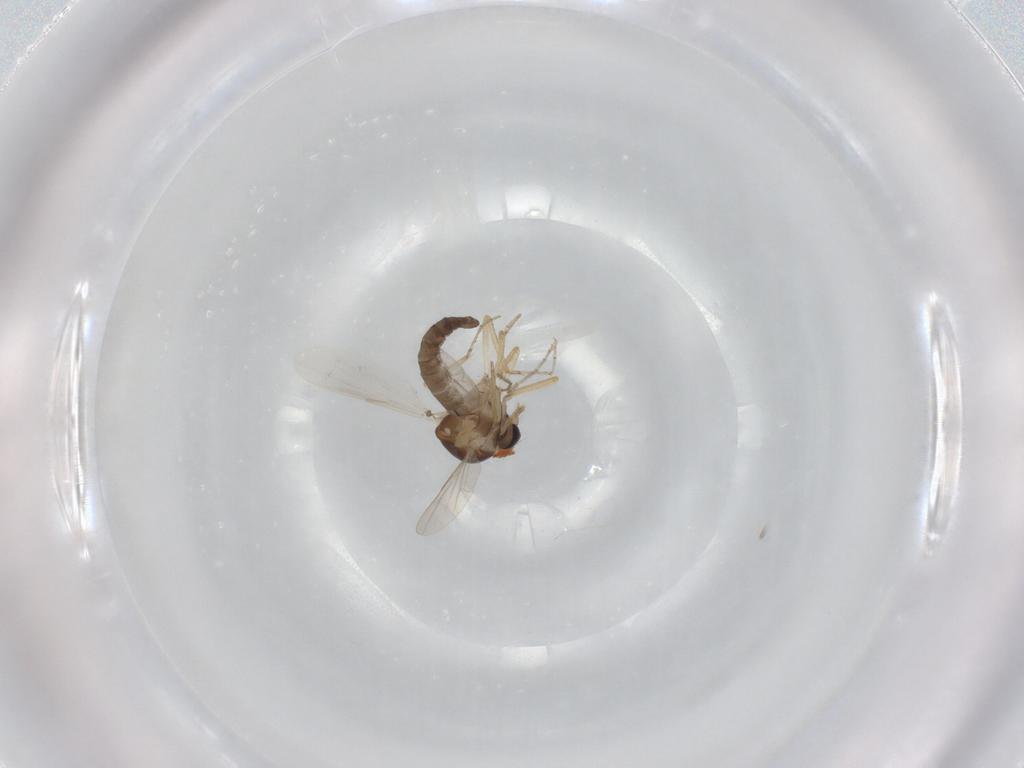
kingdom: Animalia
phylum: Arthropoda
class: Insecta
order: Diptera
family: Ceratopogonidae
